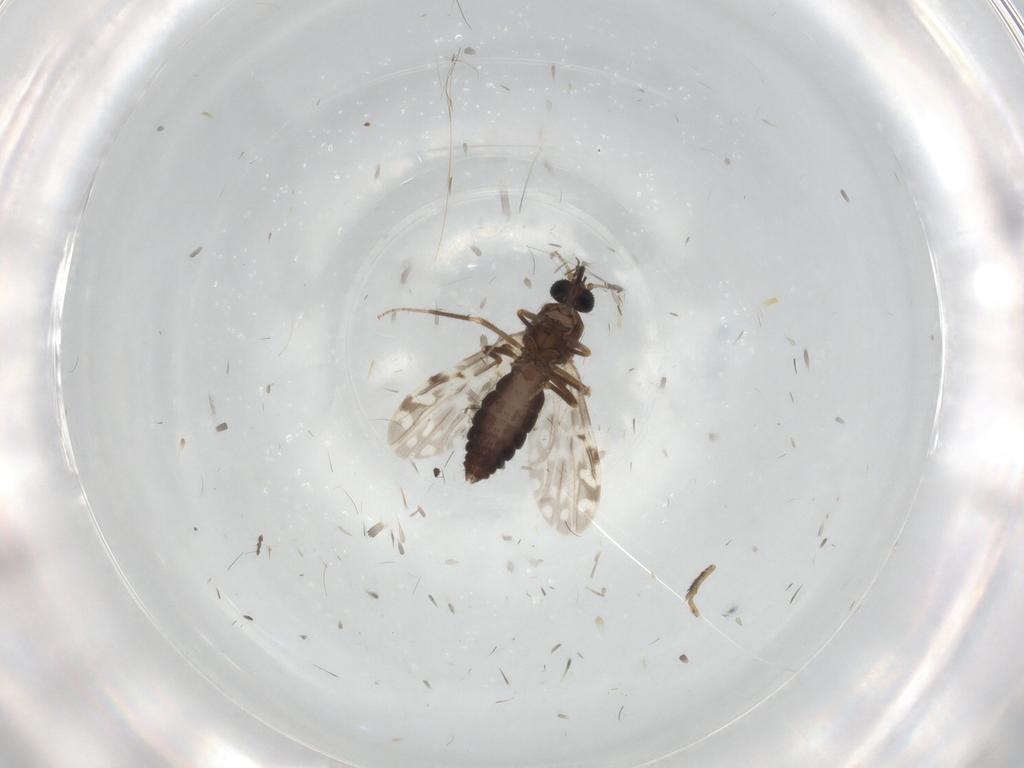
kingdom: Animalia
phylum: Arthropoda
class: Insecta
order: Diptera
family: Ceratopogonidae
